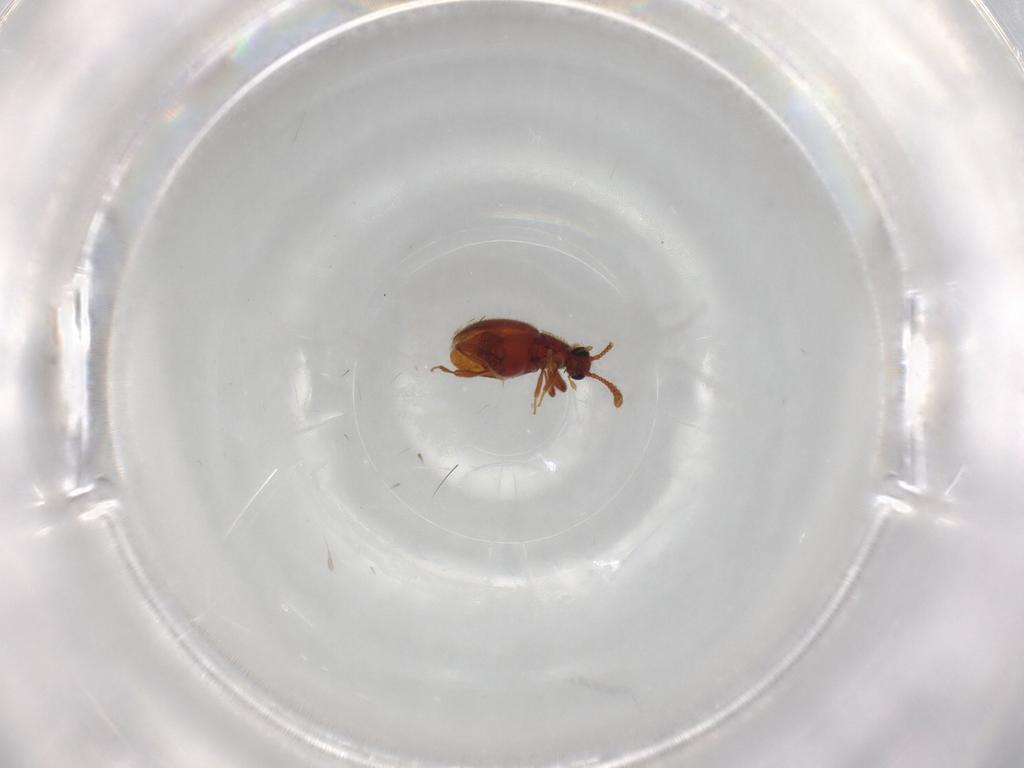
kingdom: Animalia
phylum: Arthropoda
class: Insecta
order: Coleoptera
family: Staphylinidae
